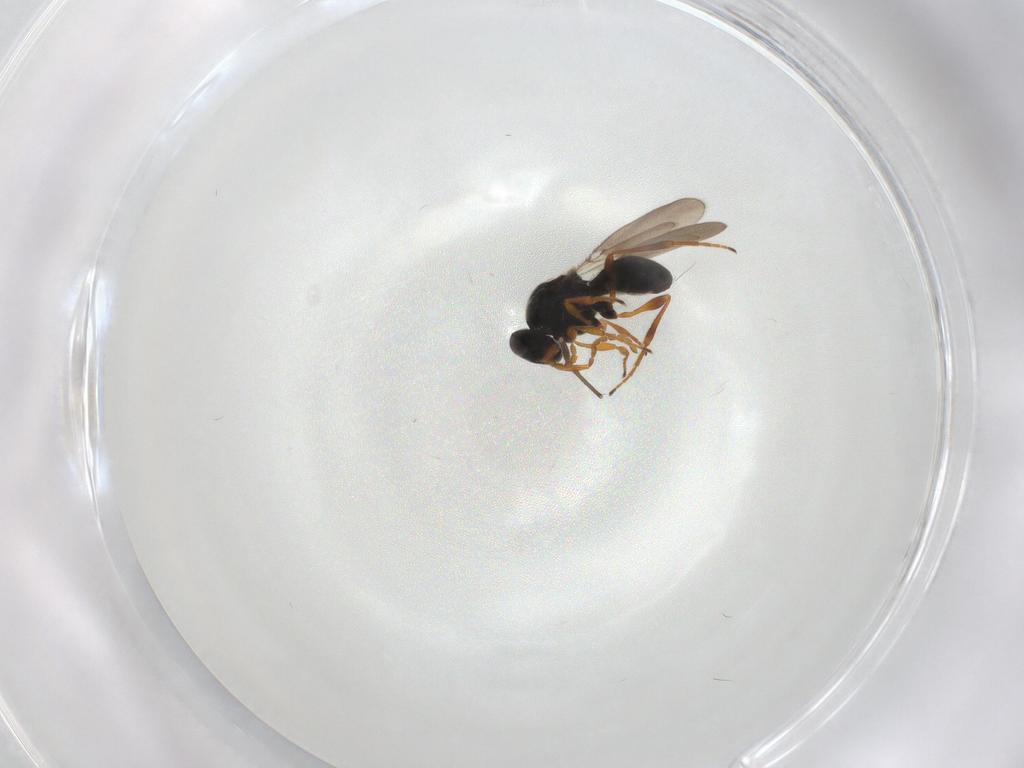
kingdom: Animalia
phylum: Arthropoda
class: Insecta
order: Hymenoptera
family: Platygastridae
